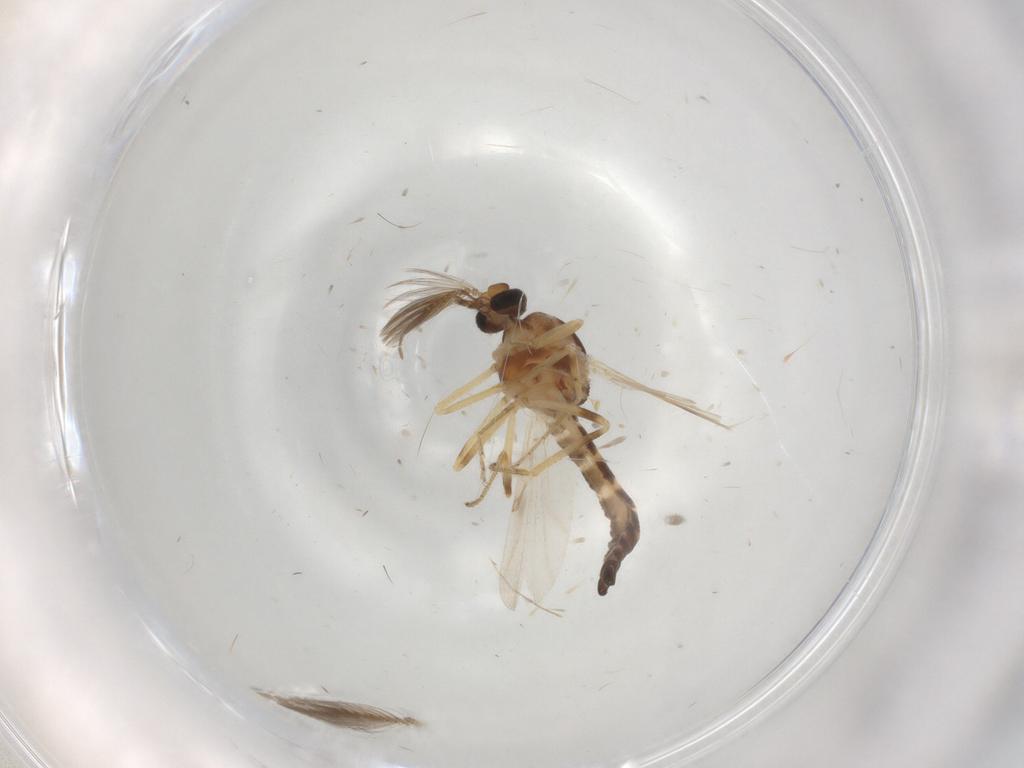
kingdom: Animalia
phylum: Arthropoda
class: Insecta
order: Diptera
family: Ceratopogonidae
